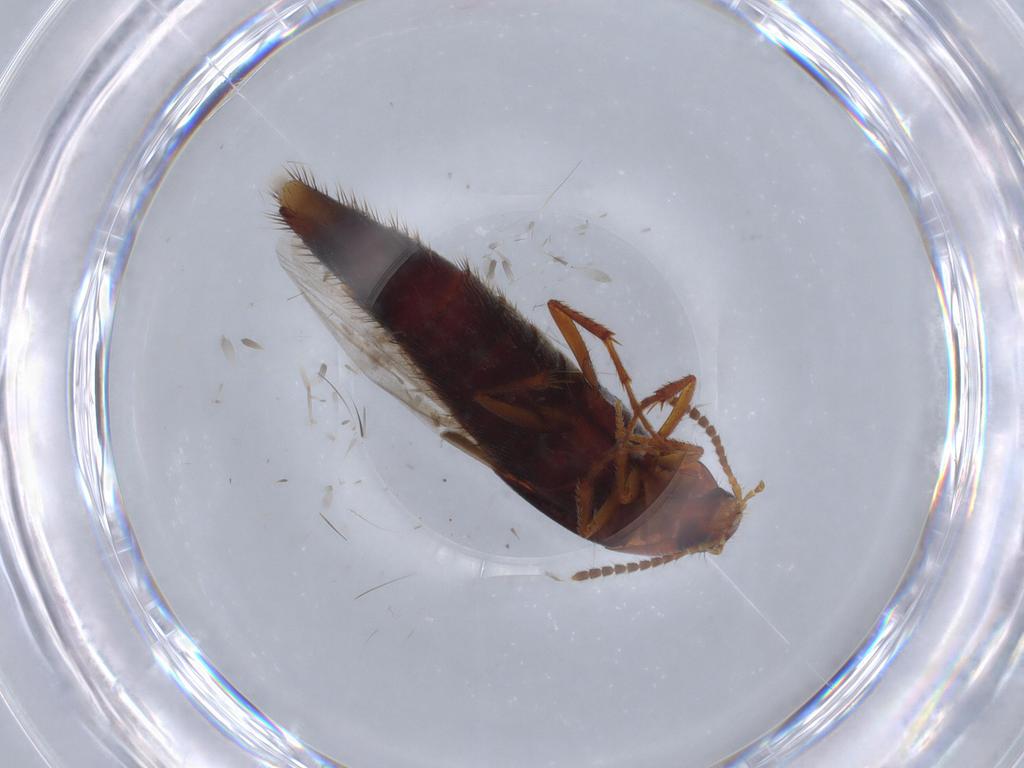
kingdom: Animalia
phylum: Arthropoda
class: Insecta
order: Coleoptera
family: Staphylinidae
